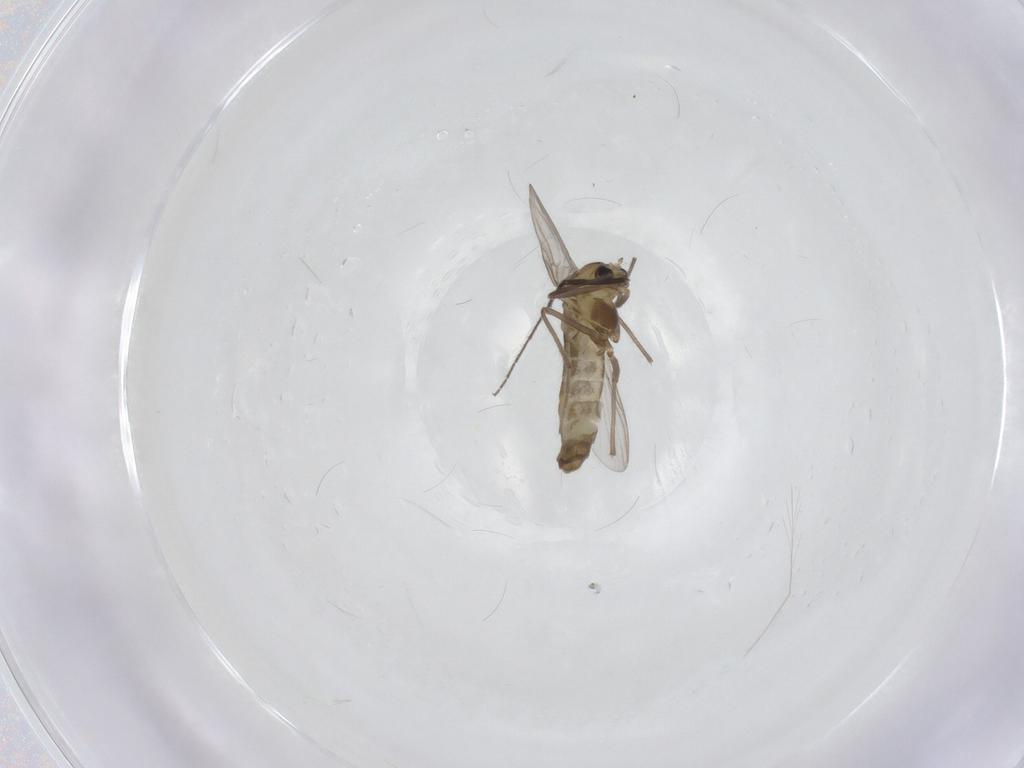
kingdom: Animalia
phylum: Arthropoda
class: Insecta
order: Diptera
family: Chironomidae
